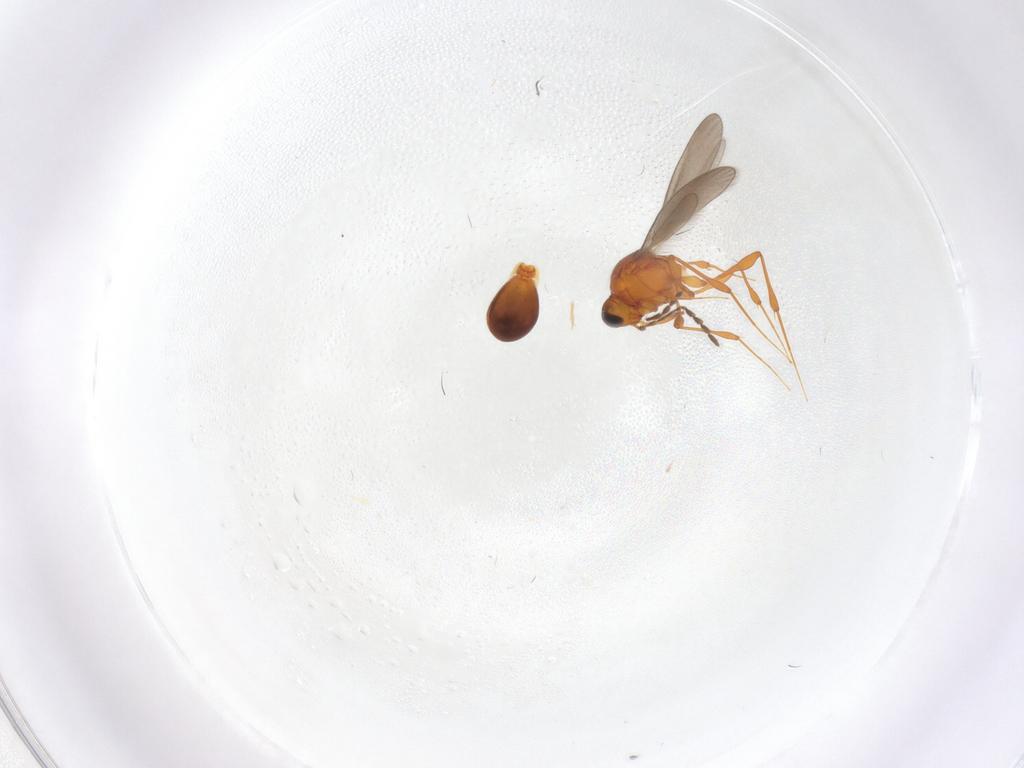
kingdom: Animalia
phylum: Arthropoda
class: Insecta
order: Hymenoptera
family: Platygastridae
